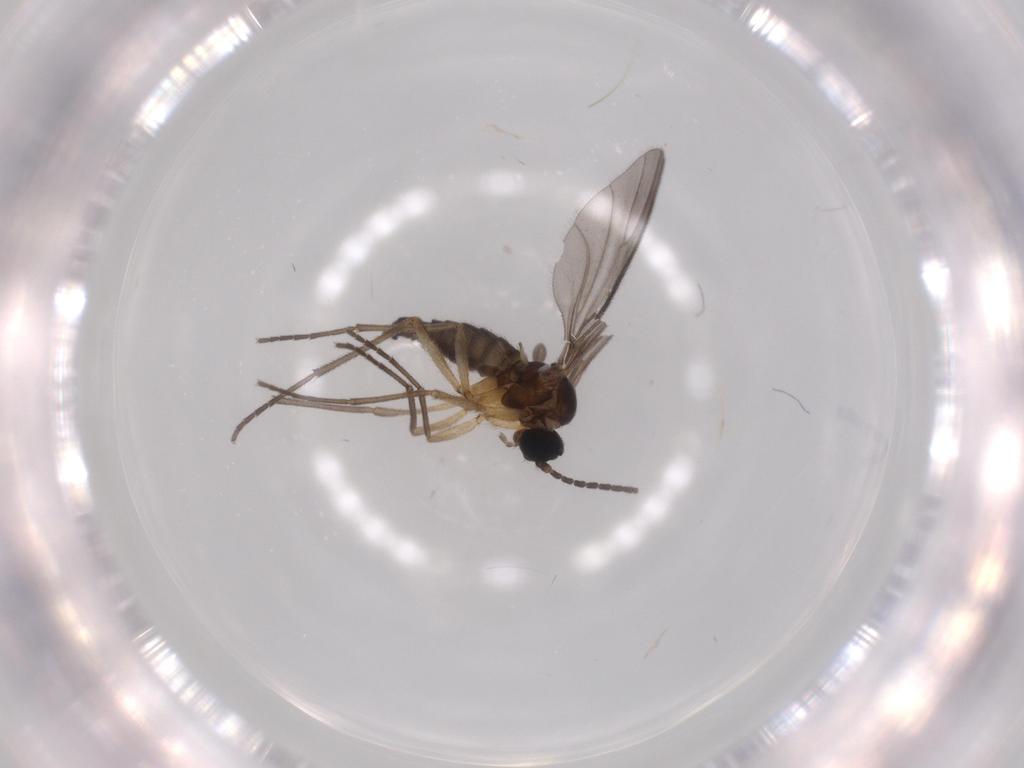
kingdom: Animalia
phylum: Arthropoda
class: Insecta
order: Diptera
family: Sciaridae
